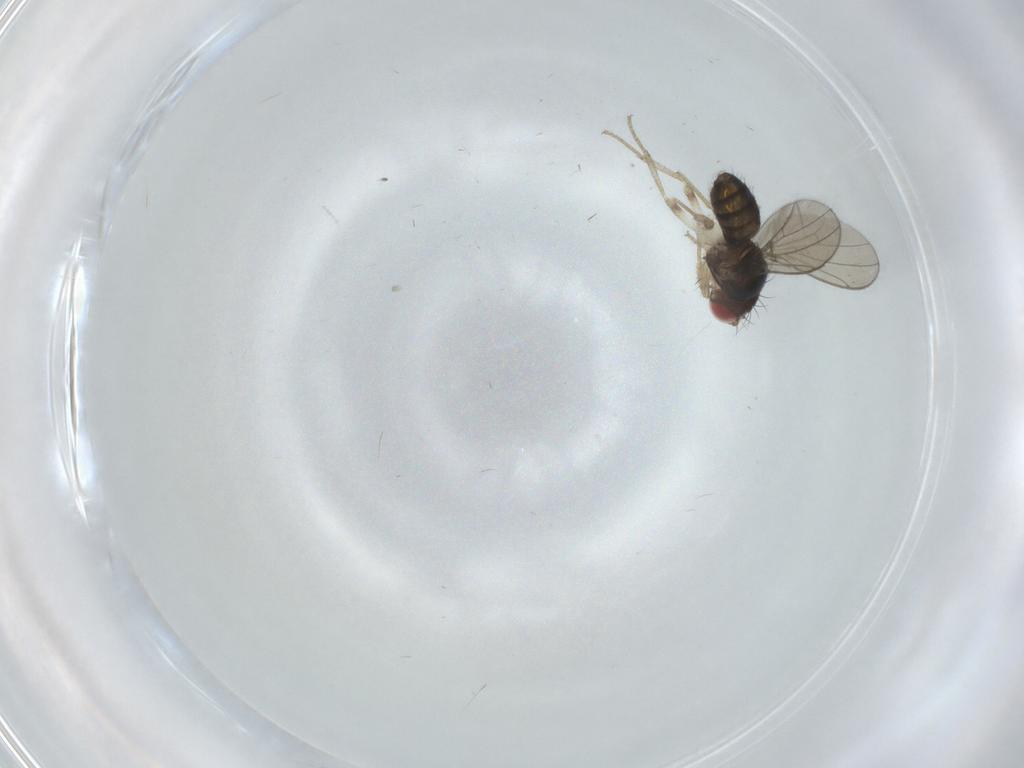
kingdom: Animalia
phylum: Arthropoda
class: Insecta
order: Diptera
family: Drosophilidae
